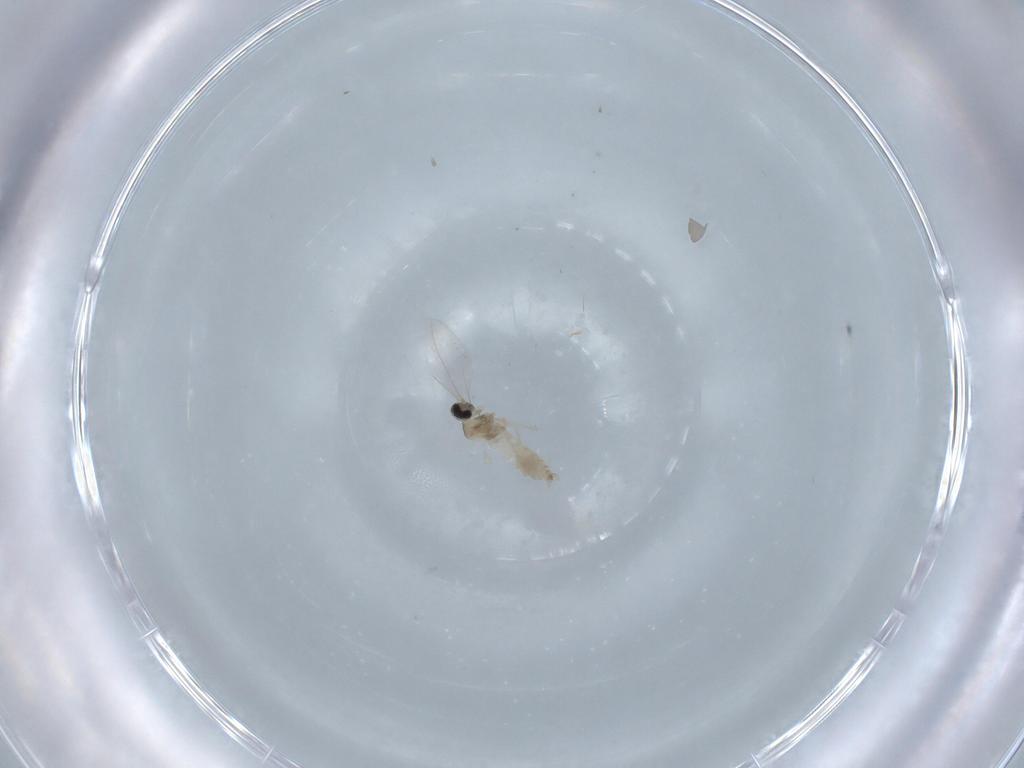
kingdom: Animalia
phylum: Arthropoda
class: Insecta
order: Diptera
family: Cecidomyiidae
